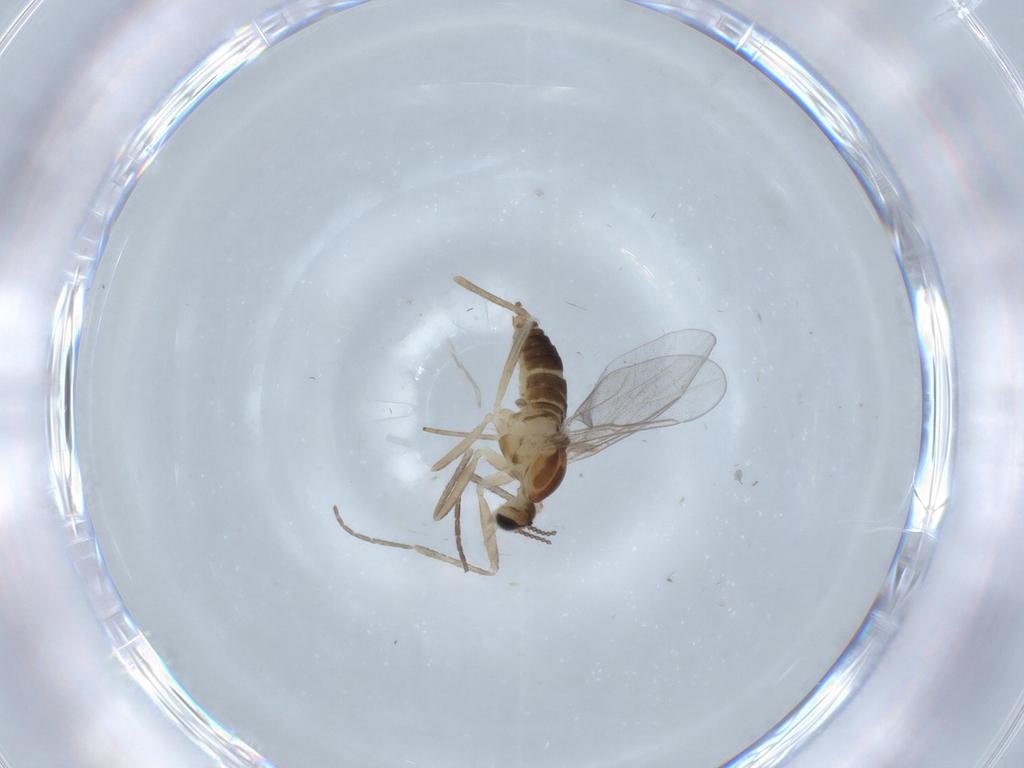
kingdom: Animalia
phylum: Arthropoda
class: Insecta
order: Diptera
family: Cecidomyiidae
